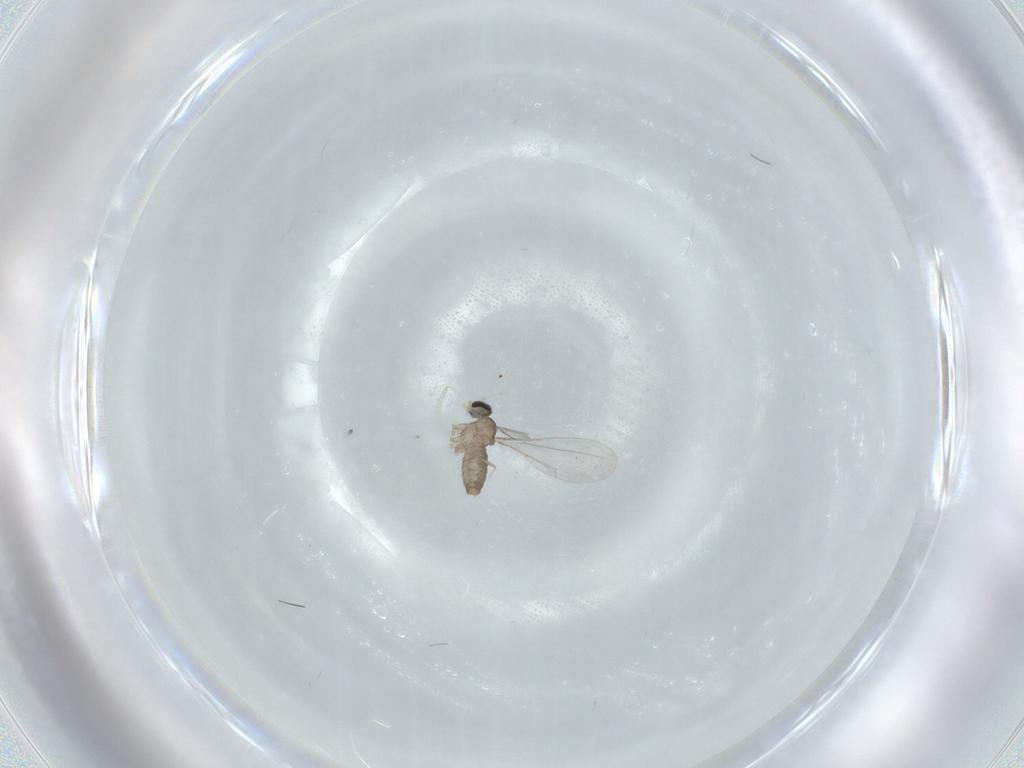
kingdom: Animalia
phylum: Arthropoda
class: Insecta
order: Diptera
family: Cecidomyiidae
